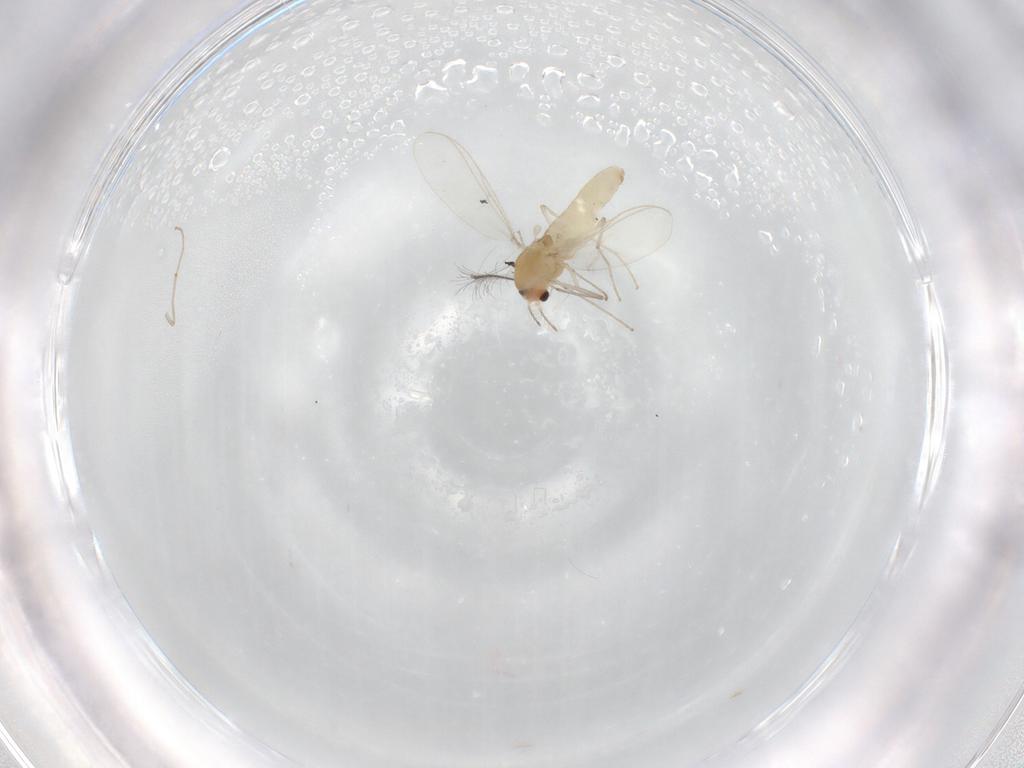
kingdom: Animalia
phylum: Arthropoda
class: Insecta
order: Diptera
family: Chironomidae
